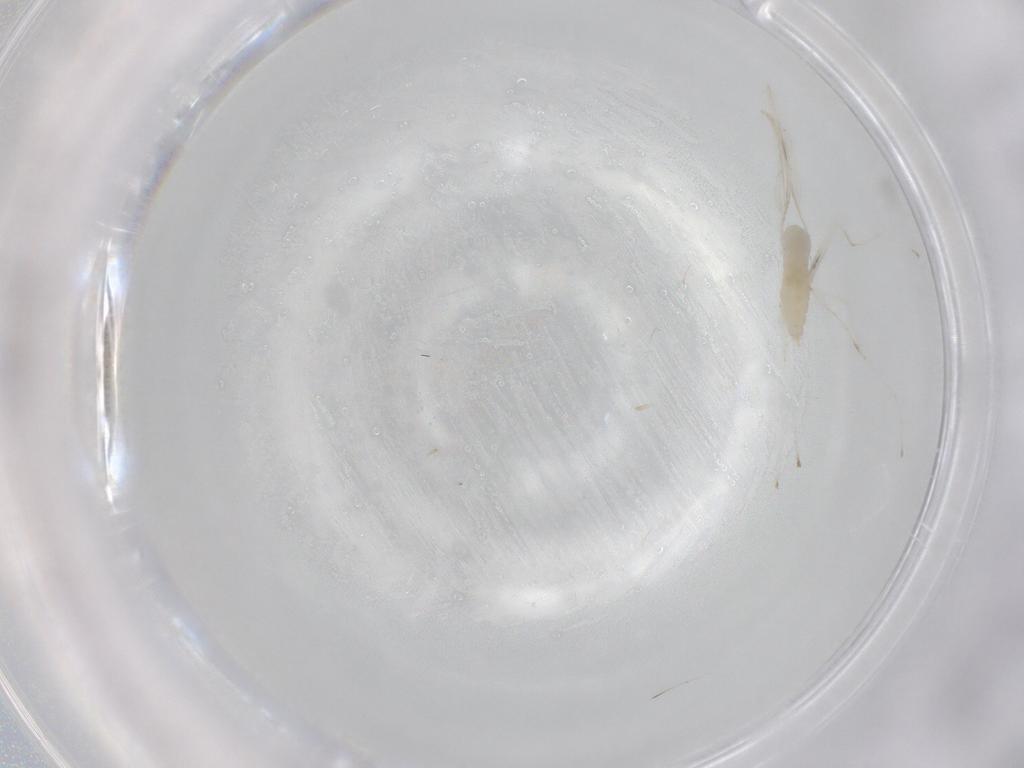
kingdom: Animalia
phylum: Arthropoda
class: Insecta
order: Diptera
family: Cecidomyiidae
